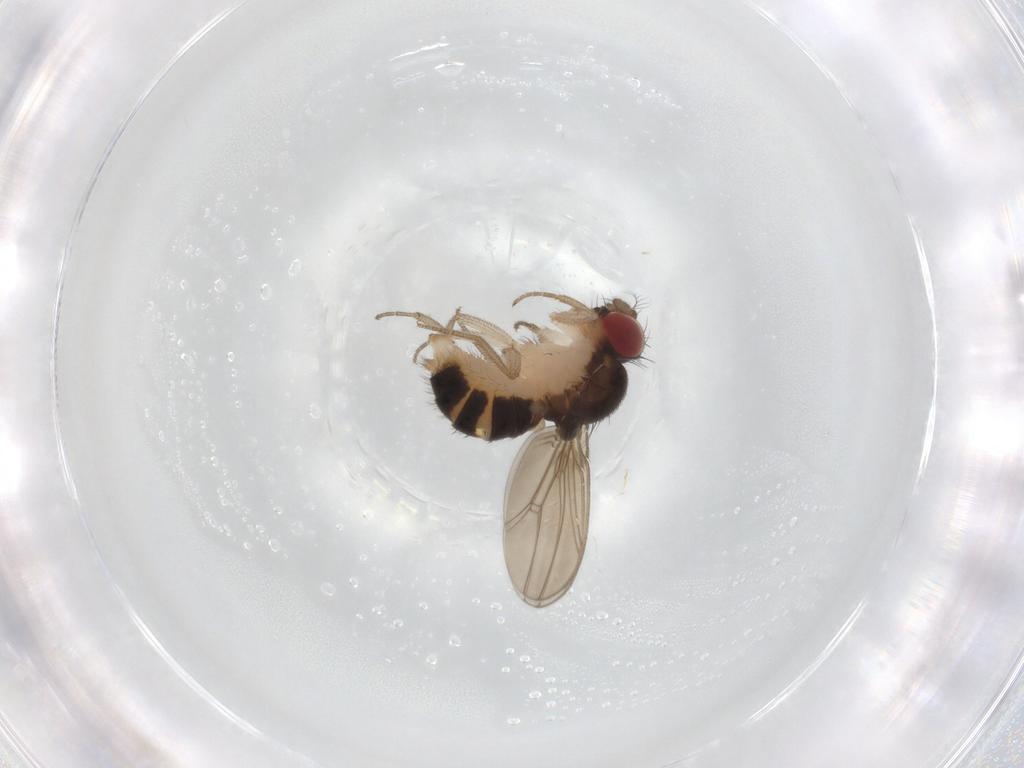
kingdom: Animalia
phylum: Arthropoda
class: Insecta
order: Diptera
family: Drosophilidae
